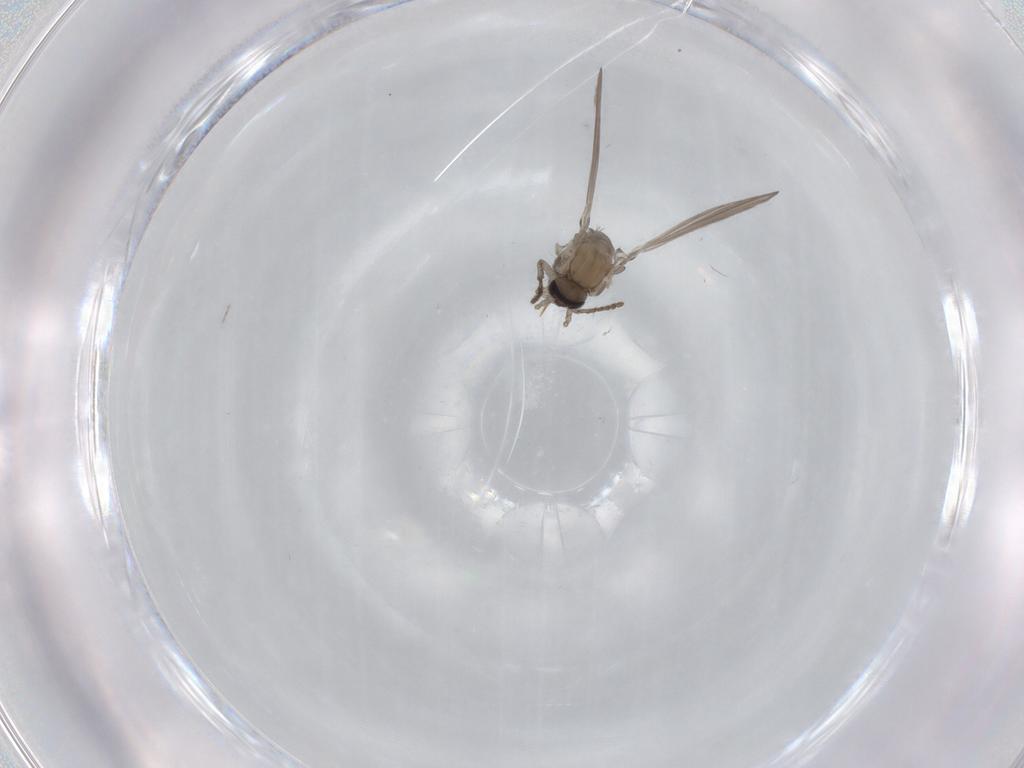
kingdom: Animalia
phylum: Arthropoda
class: Insecta
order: Diptera
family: Psychodidae
